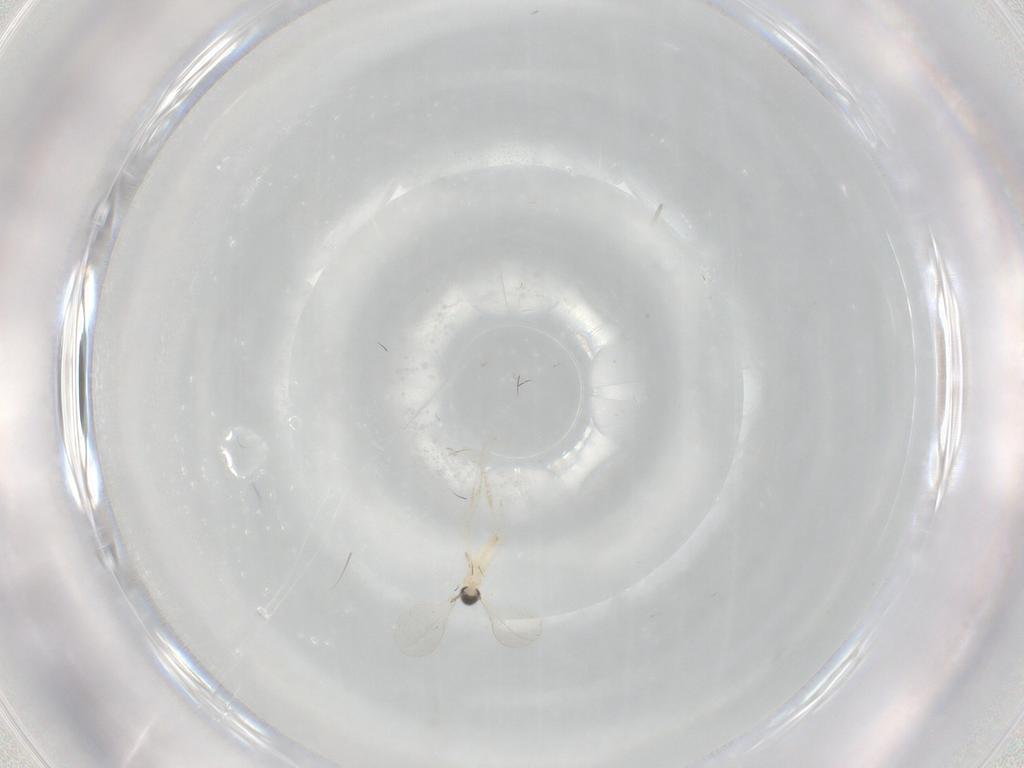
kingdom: Animalia
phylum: Arthropoda
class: Insecta
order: Diptera
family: Cecidomyiidae
